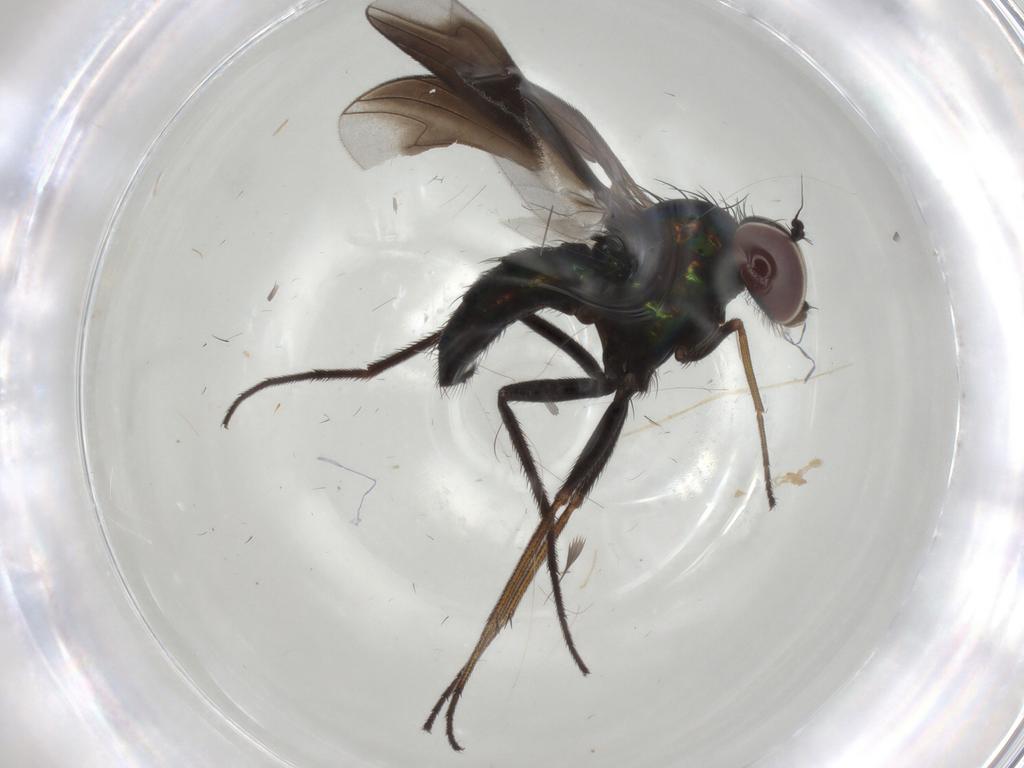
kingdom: Animalia
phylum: Arthropoda
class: Insecta
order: Diptera
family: Dolichopodidae
